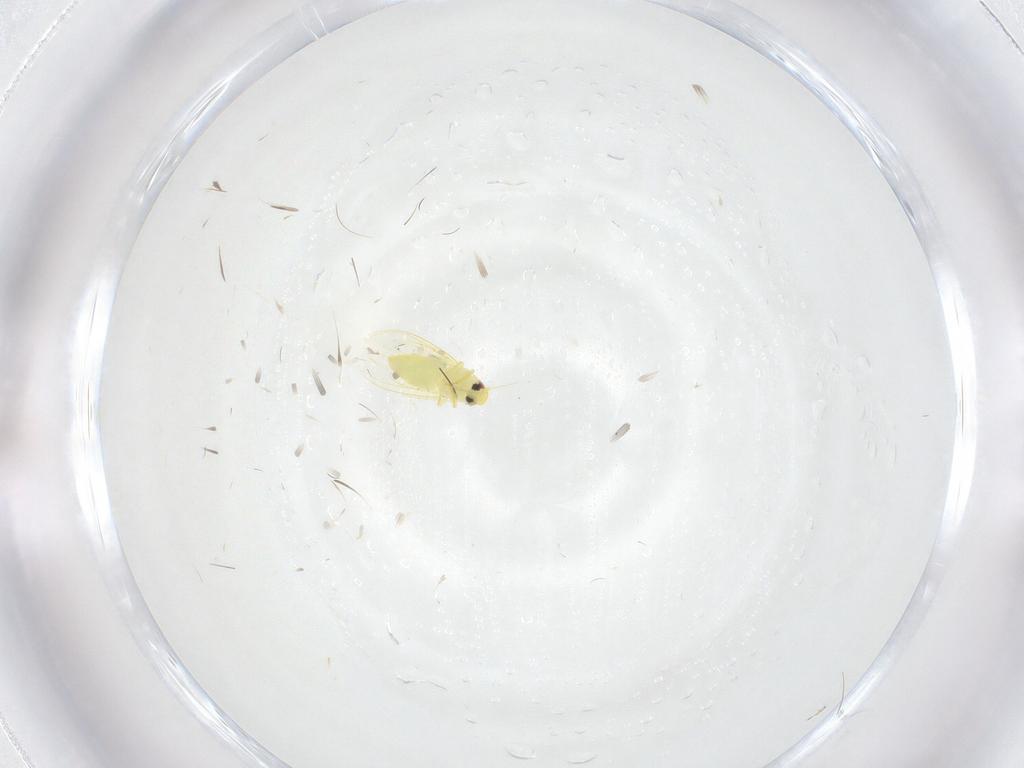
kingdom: Animalia
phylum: Arthropoda
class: Insecta
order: Hemiptera
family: Aleyrodidae
